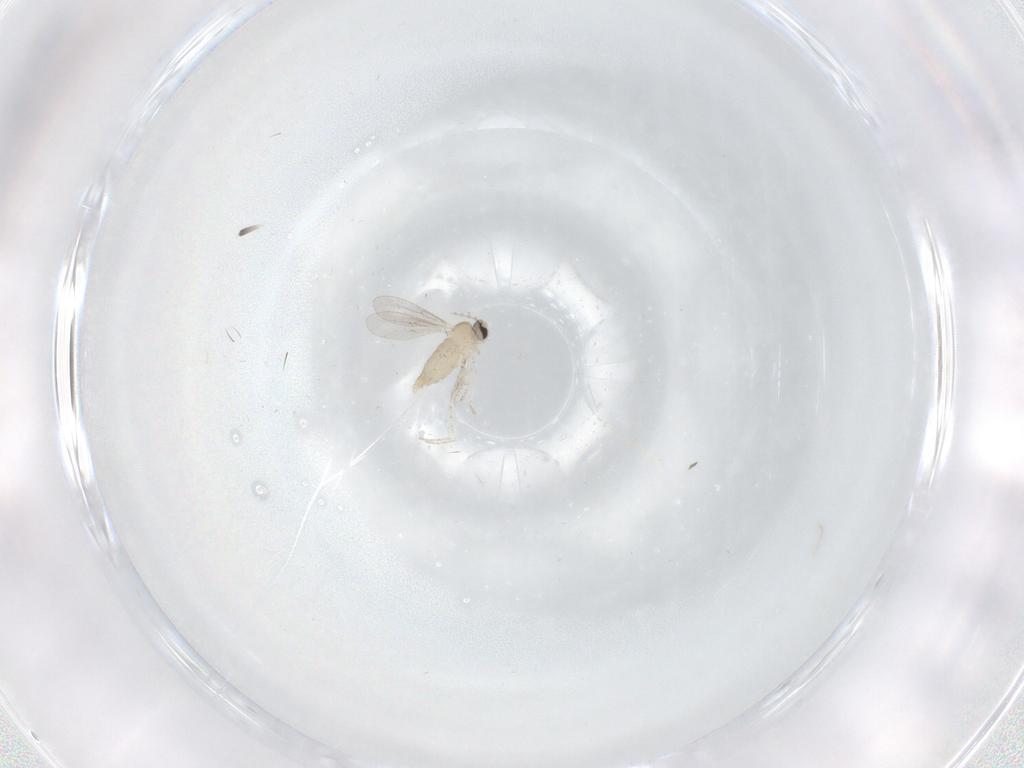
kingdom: Animalia
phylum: Arthropoda
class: Insecta
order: Diptera
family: Cecidomyiidae
